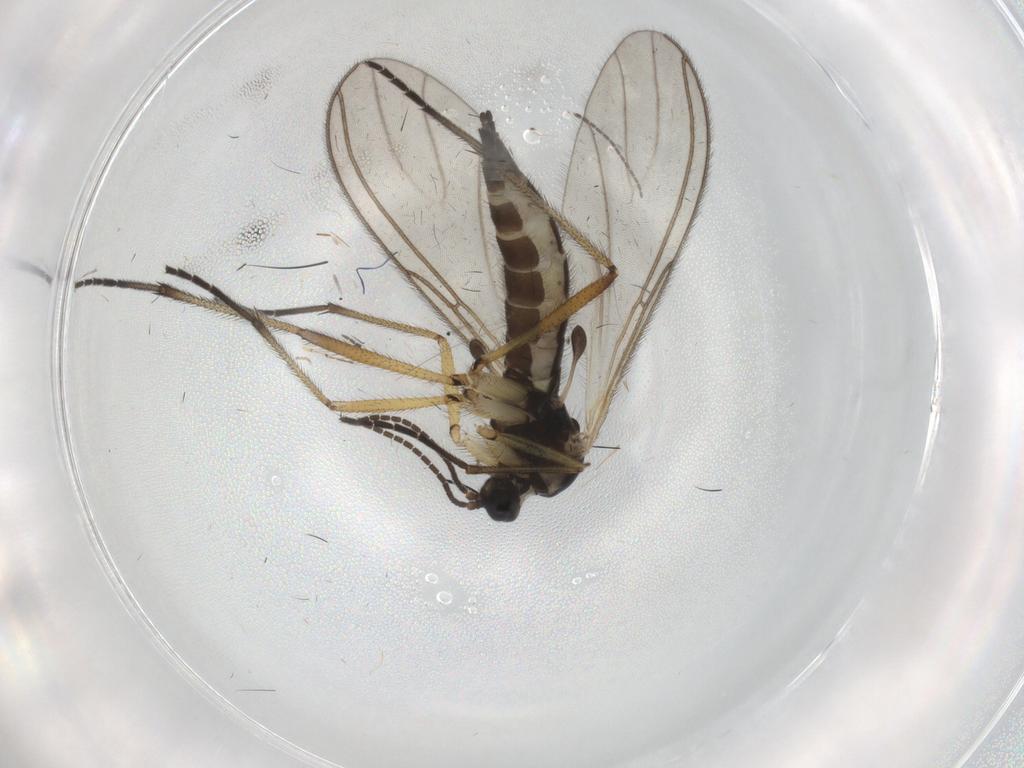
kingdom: Animalia
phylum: Arthropoda
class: Insecta
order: Diptera
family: Sciaridae
